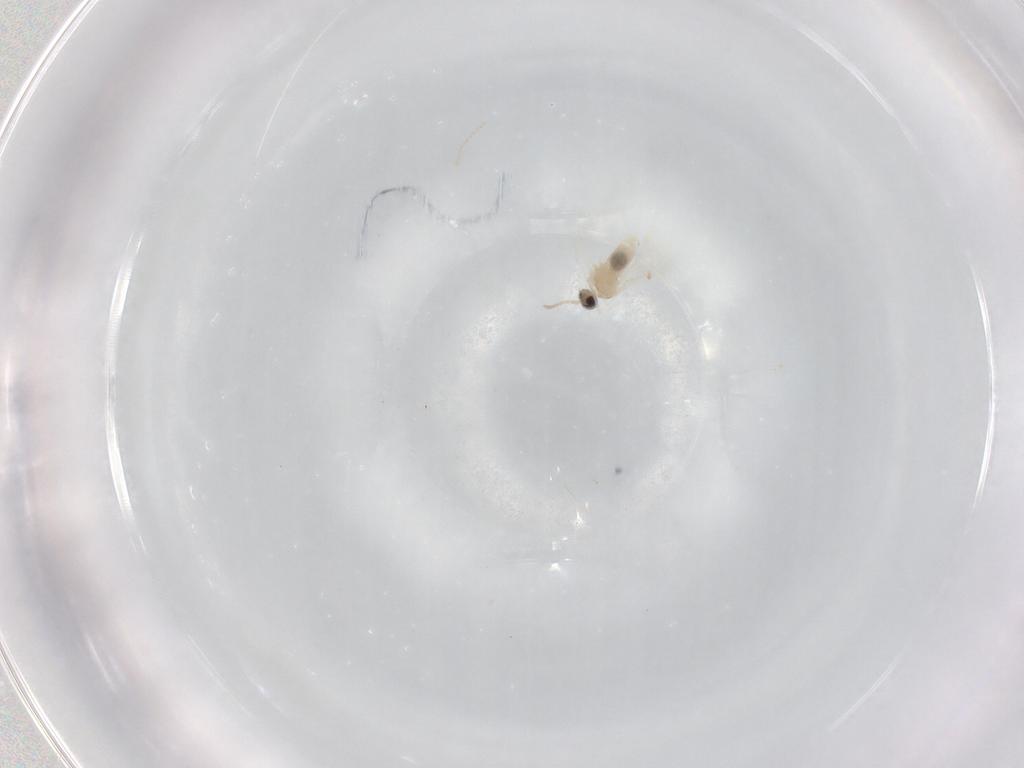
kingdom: Animalia
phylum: Arthropoda
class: Insecta
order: Diptera
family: Cecidomyiidae
